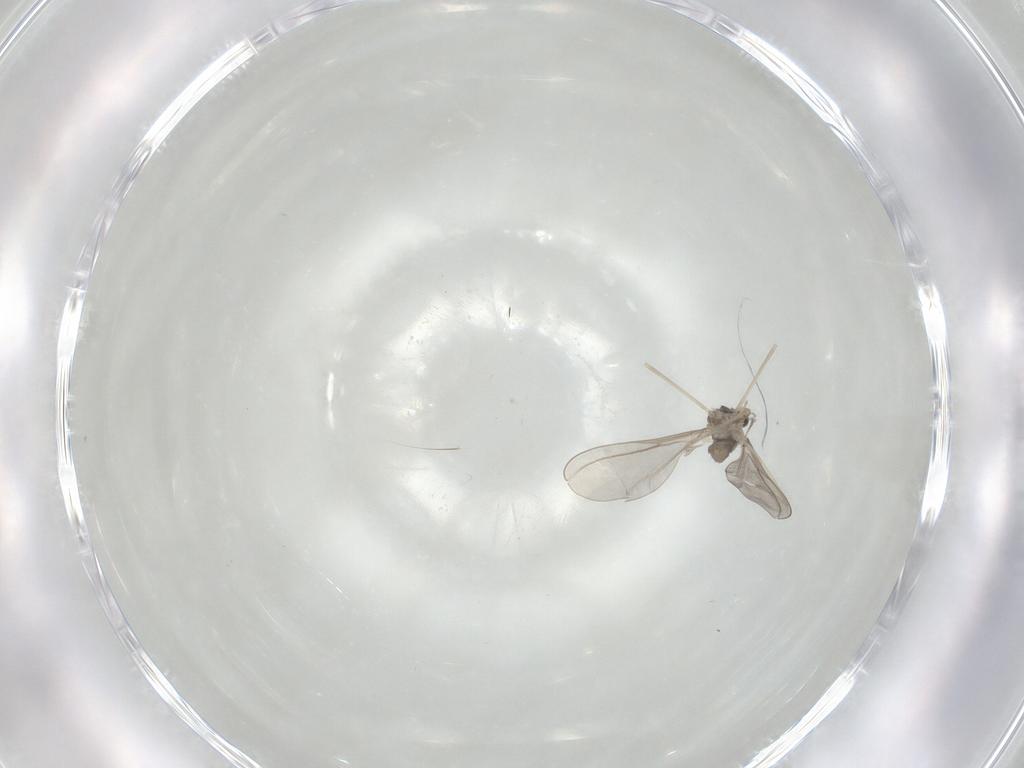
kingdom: Animalia
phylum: Arthropoda
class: Insecta
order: Diptera
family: Cecidomyiidae
